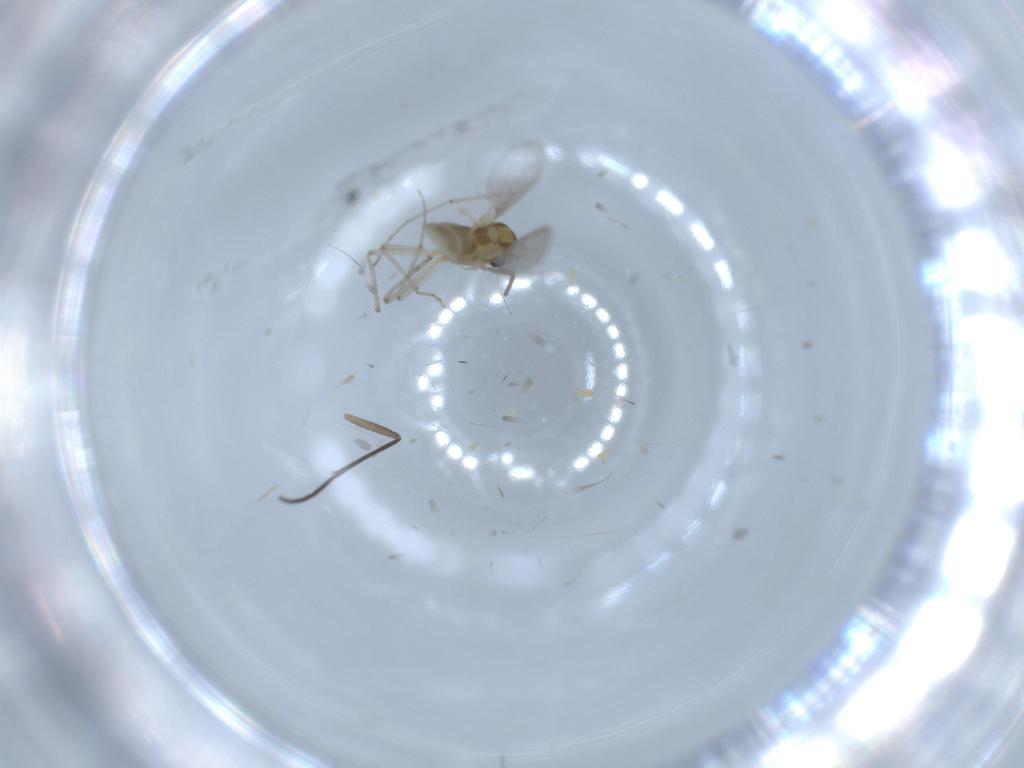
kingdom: Animalia
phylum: Arthropoda
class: Insecta
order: Diptera
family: Chironomidae
